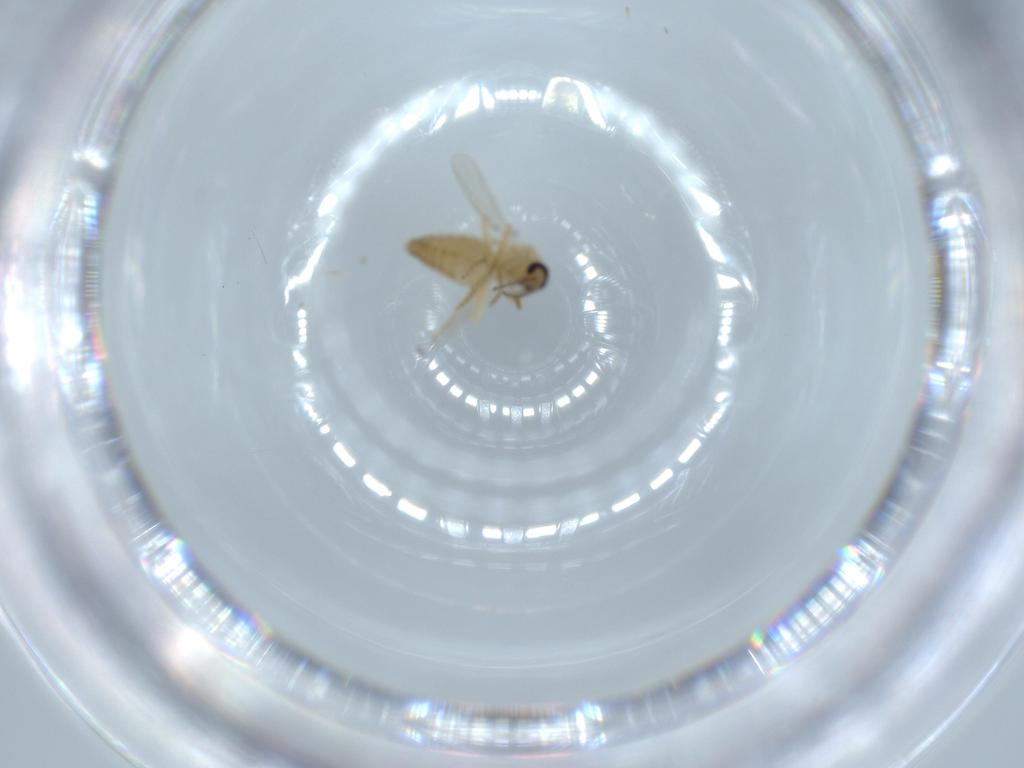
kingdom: Animalia
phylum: Arthropoda
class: Insecta
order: Diptera
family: Ceratopogonidae
